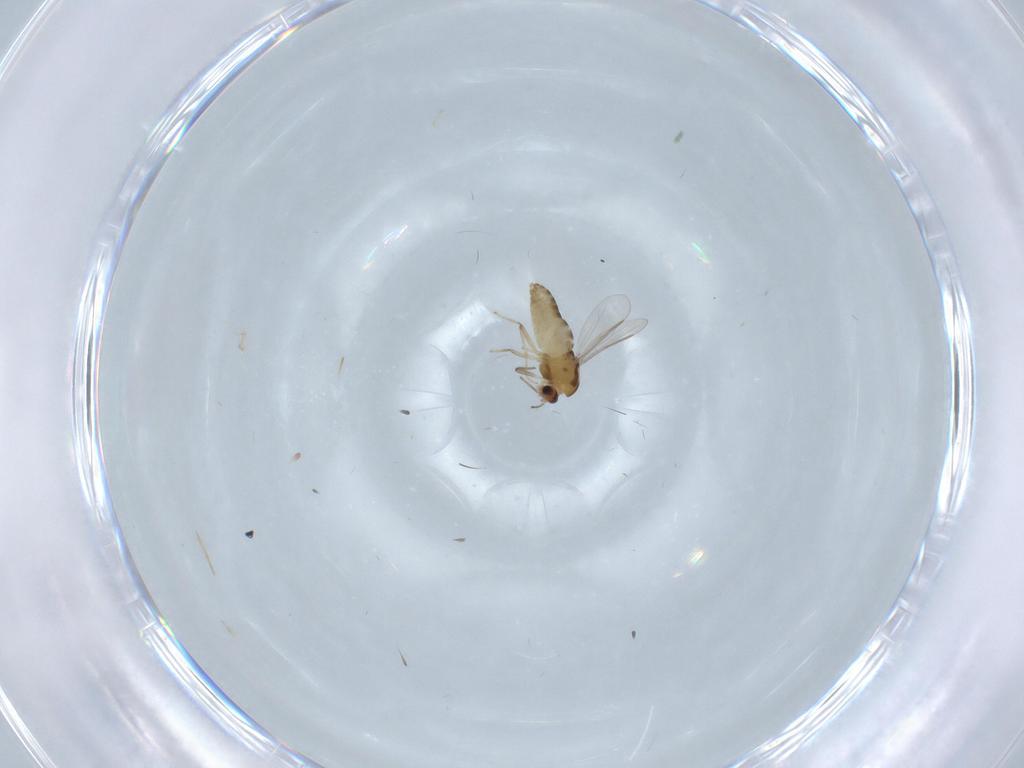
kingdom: Animalia
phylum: Arthropoda
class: Insecta
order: Diptera
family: Chironomidae
